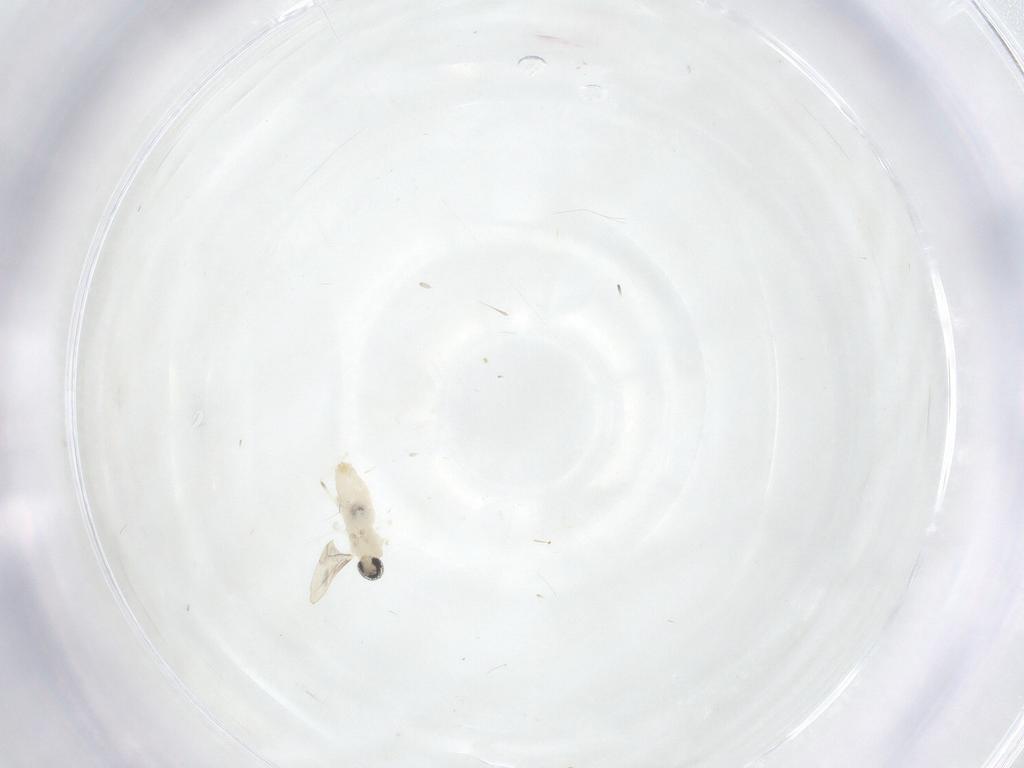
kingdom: Animalia
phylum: Arthropoda
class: Insecta
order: Diptera
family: Cecidomyiidae
